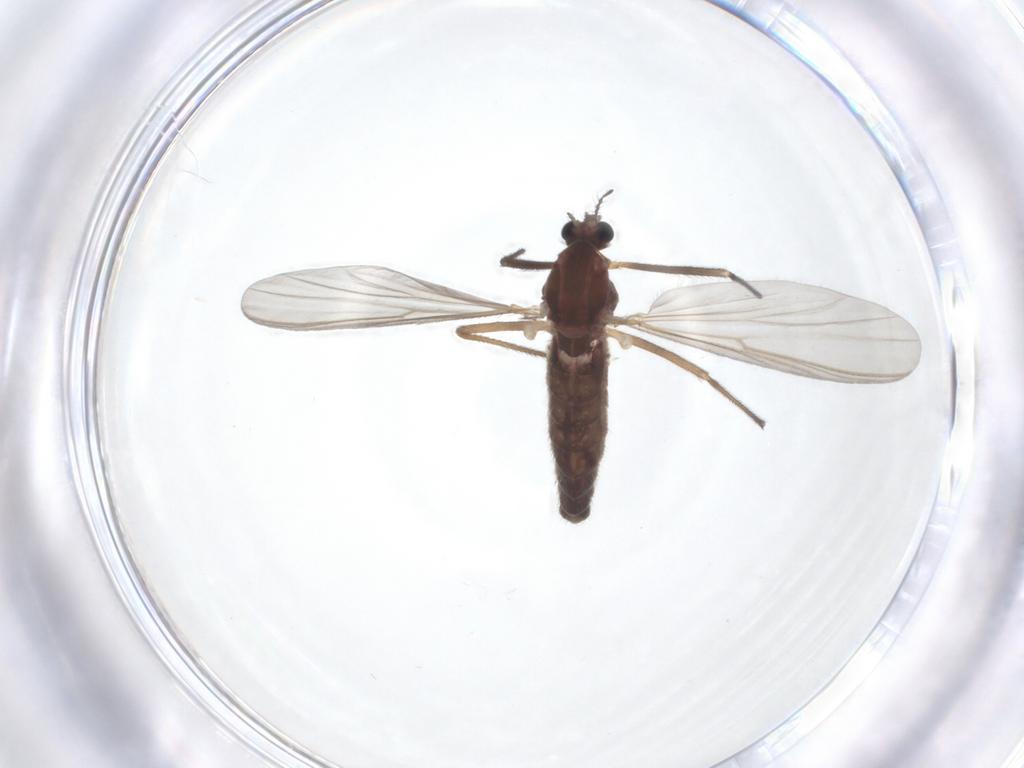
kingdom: Animalia
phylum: Arthropoda
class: Insecta
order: Diptera
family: Chironomidae
